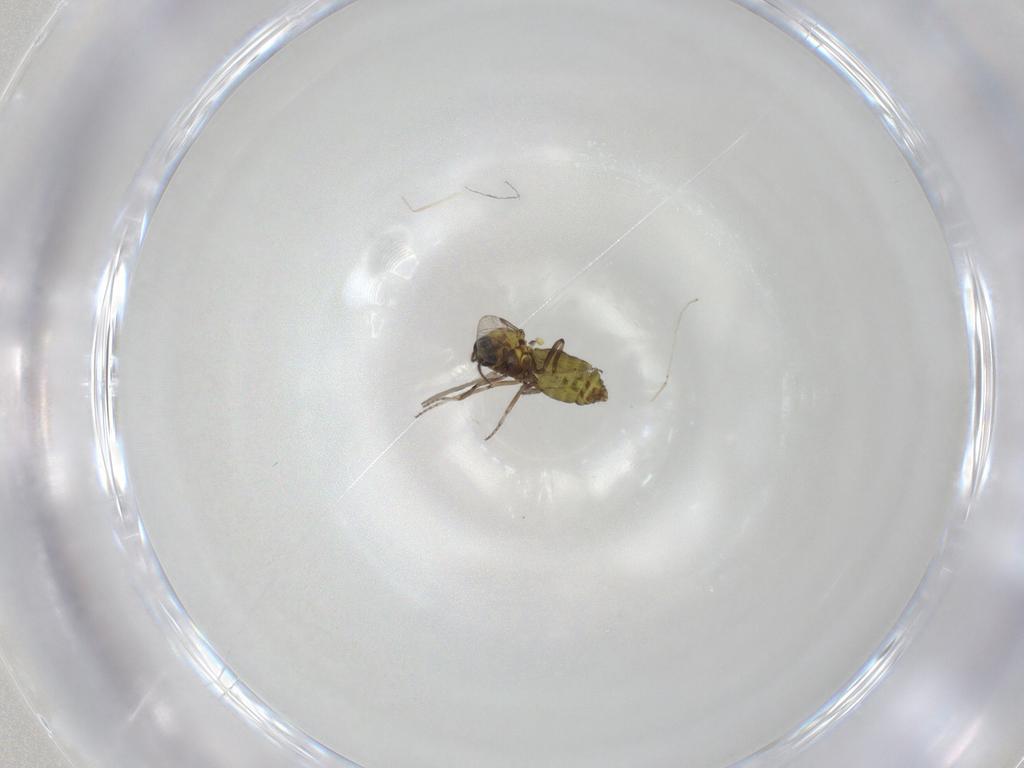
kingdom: Animalia
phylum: Arthropoda
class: Insecta
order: Diptera
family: Ceratopogonidae
